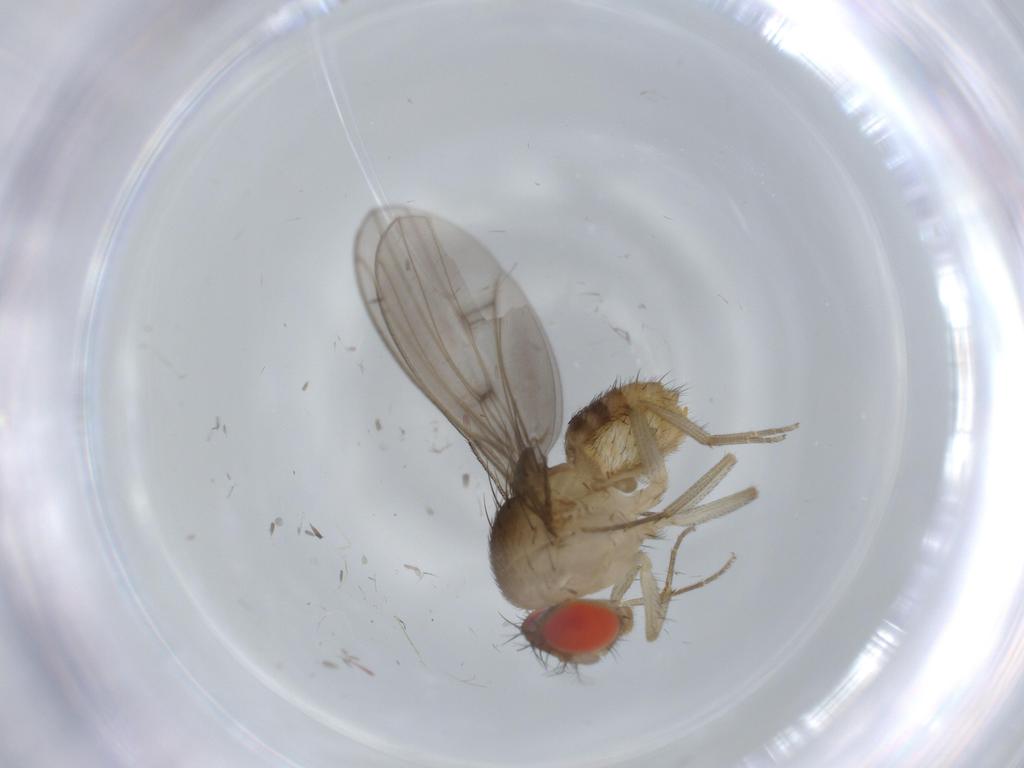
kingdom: Animalia
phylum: Arthropoda
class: Insecta
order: Diptera
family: Drosophilidae
